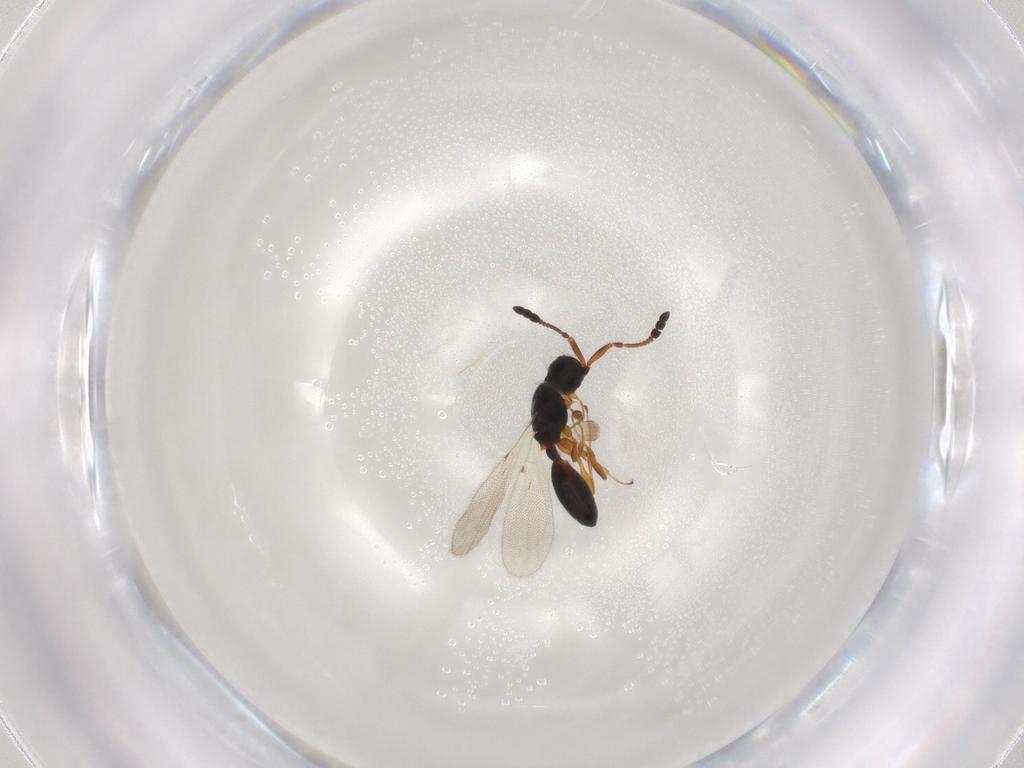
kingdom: Animalia
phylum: Arthropoda
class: Insecta
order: Hymenoptera
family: Diapriidae
